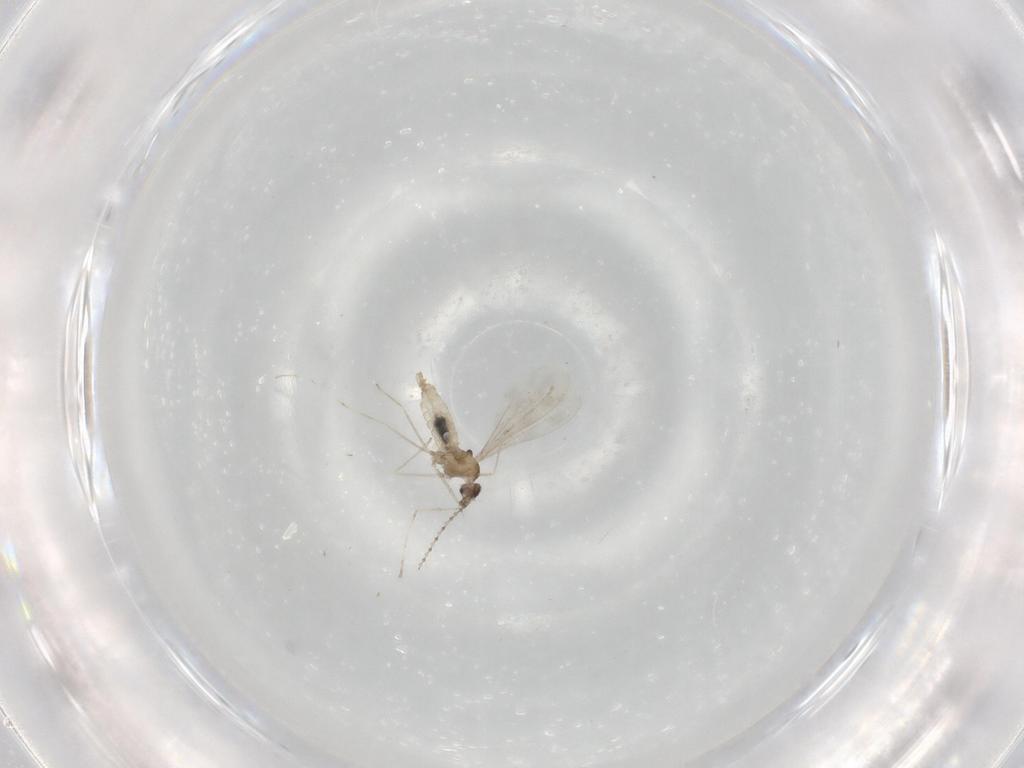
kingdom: Animalia
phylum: Arthropoda
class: Insecta
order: Diptera
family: Cecidomyiidae
